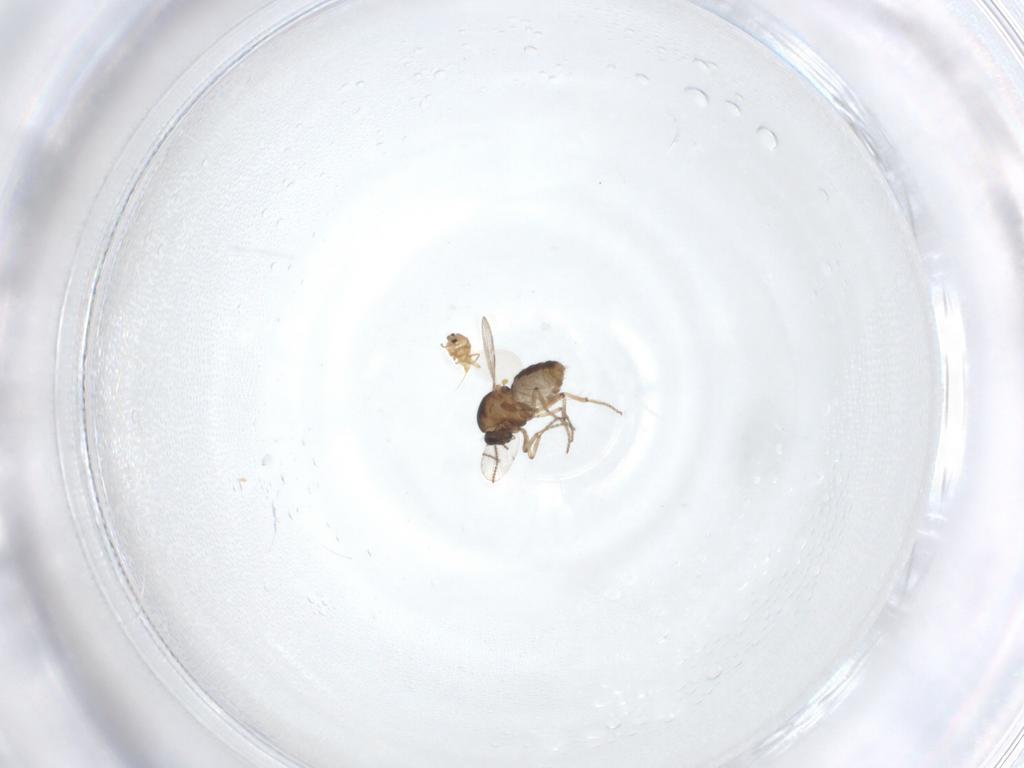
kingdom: Animalia
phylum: Arthropoda
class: Insecta
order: Diptera
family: Ceratopogonidae
